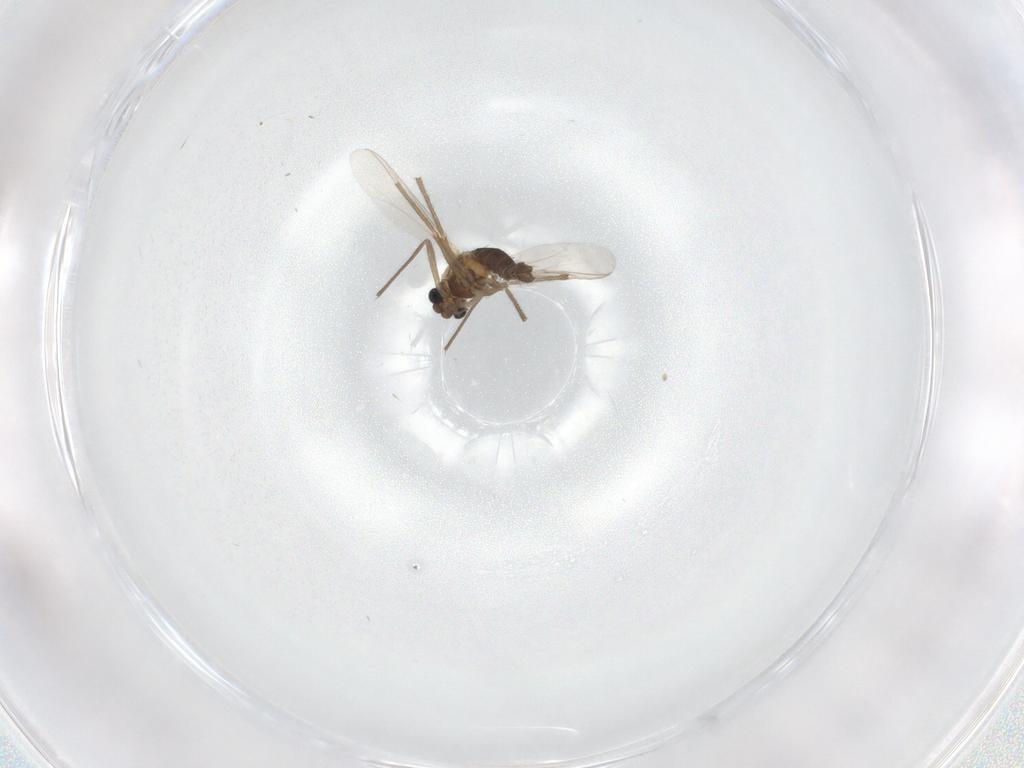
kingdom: Animalia
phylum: Arthropoda
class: Insecta
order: Diptera
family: Chironomidae
